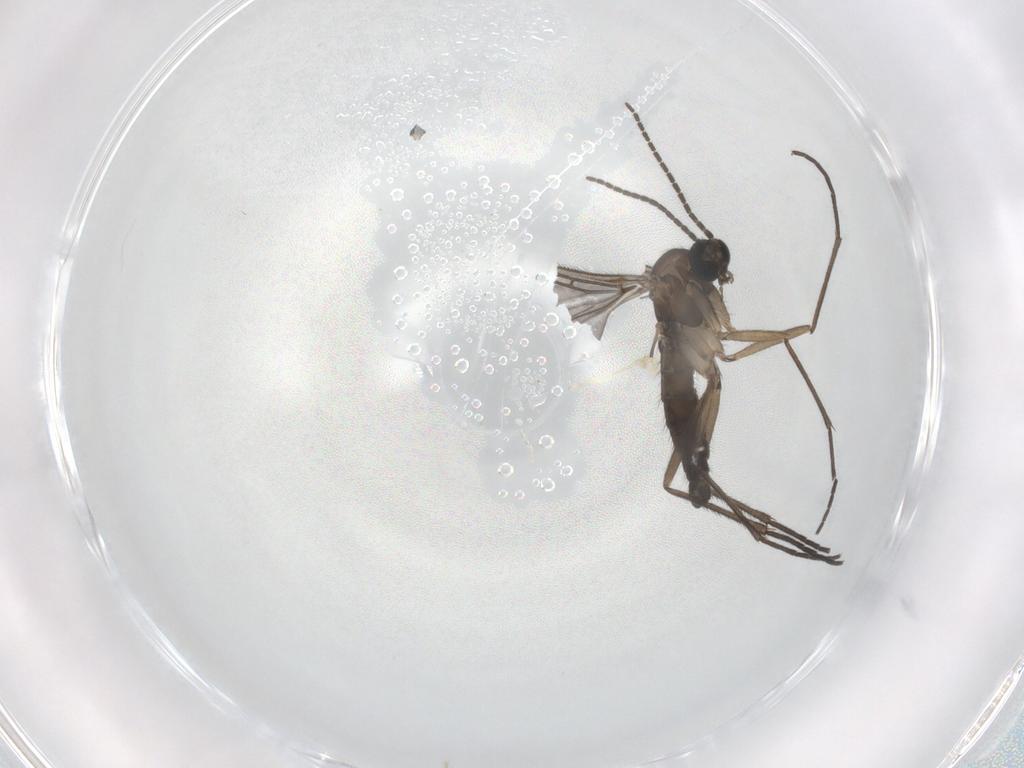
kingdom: Animalia
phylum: Arthropoda
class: Insecta
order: Diptera
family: Sciaridae
